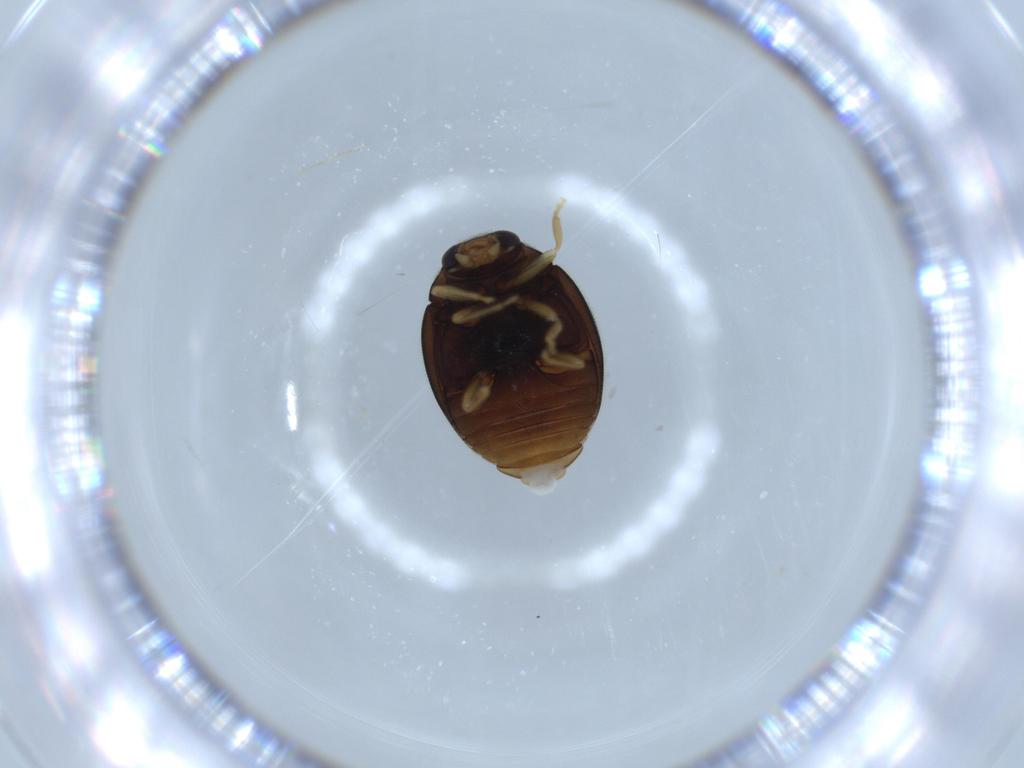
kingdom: Animalia
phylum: Arthropoda
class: Insecta
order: Coleoptera
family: Coccinellidae
